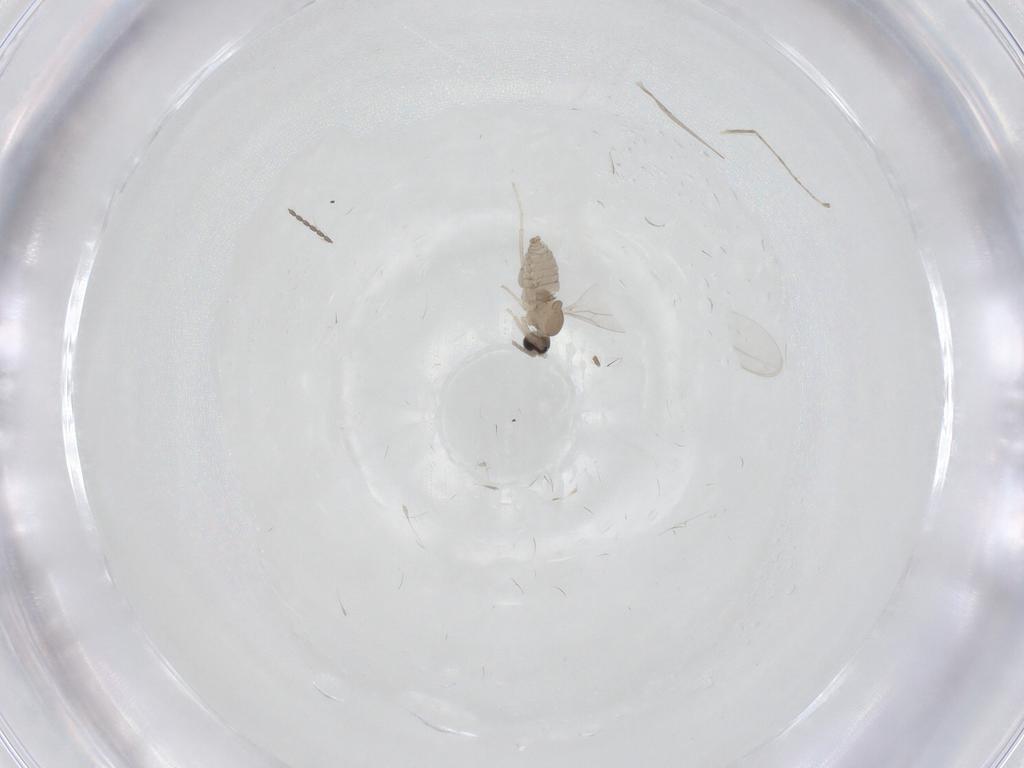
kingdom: Animalia
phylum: Arthropoda
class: Insecta
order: Diptera
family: Cecidomyiidae
